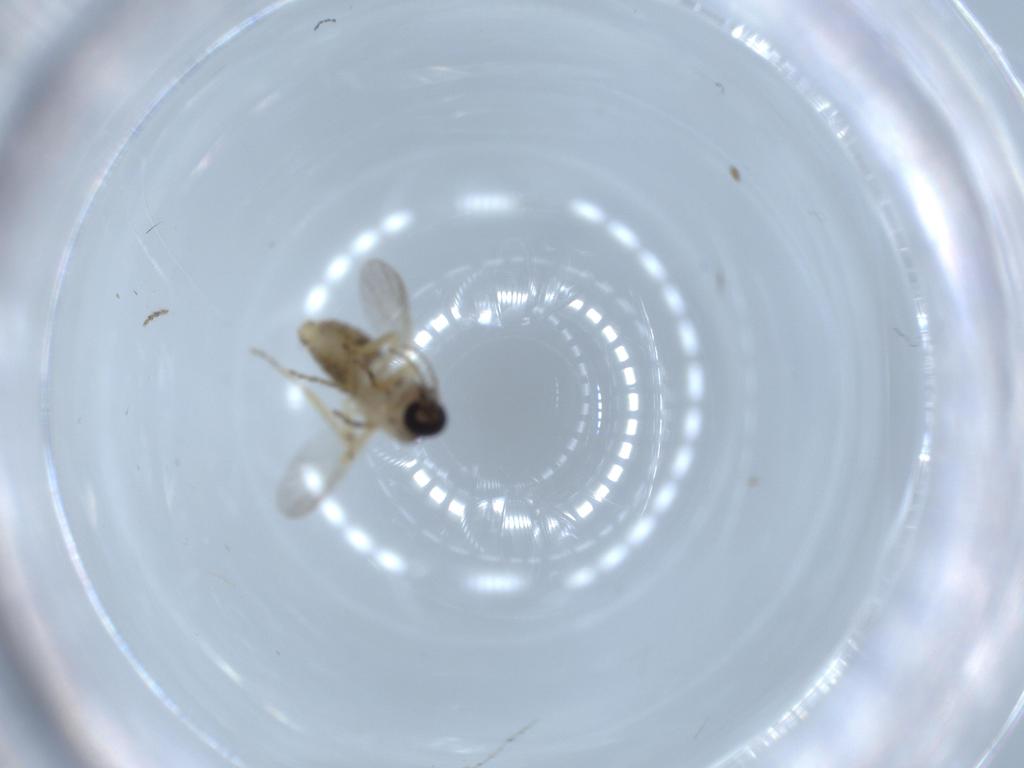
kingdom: Animalia
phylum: Arthropoda
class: Insecta
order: Diptera
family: Ceratopogonidae
